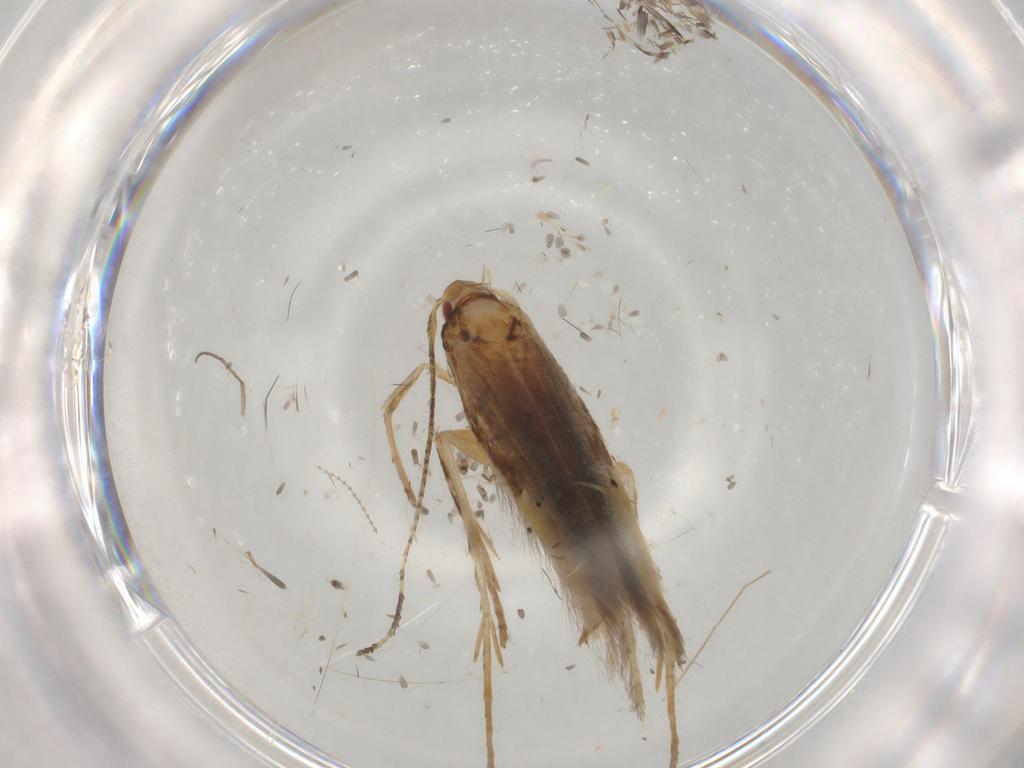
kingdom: Animalia
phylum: Arthropoda
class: Insecta
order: Lepidoptera
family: Cosmopterigidae
